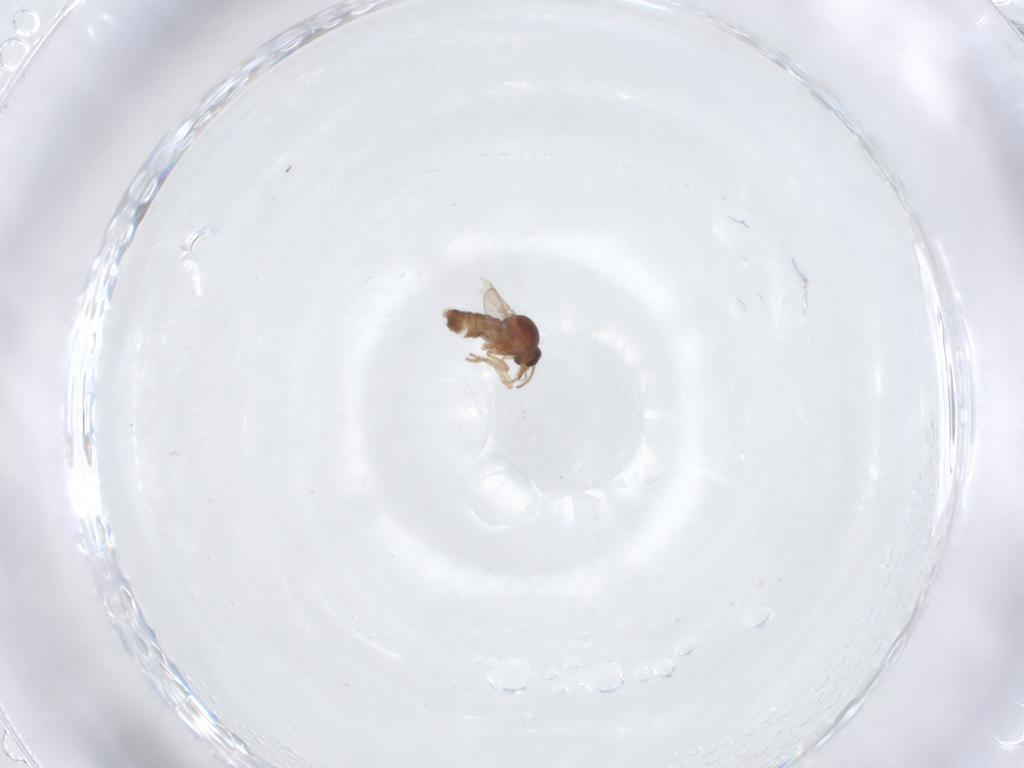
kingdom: Animalia
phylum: Arthropoda
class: Insecta
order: Diptera
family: Ceratopogonidae
